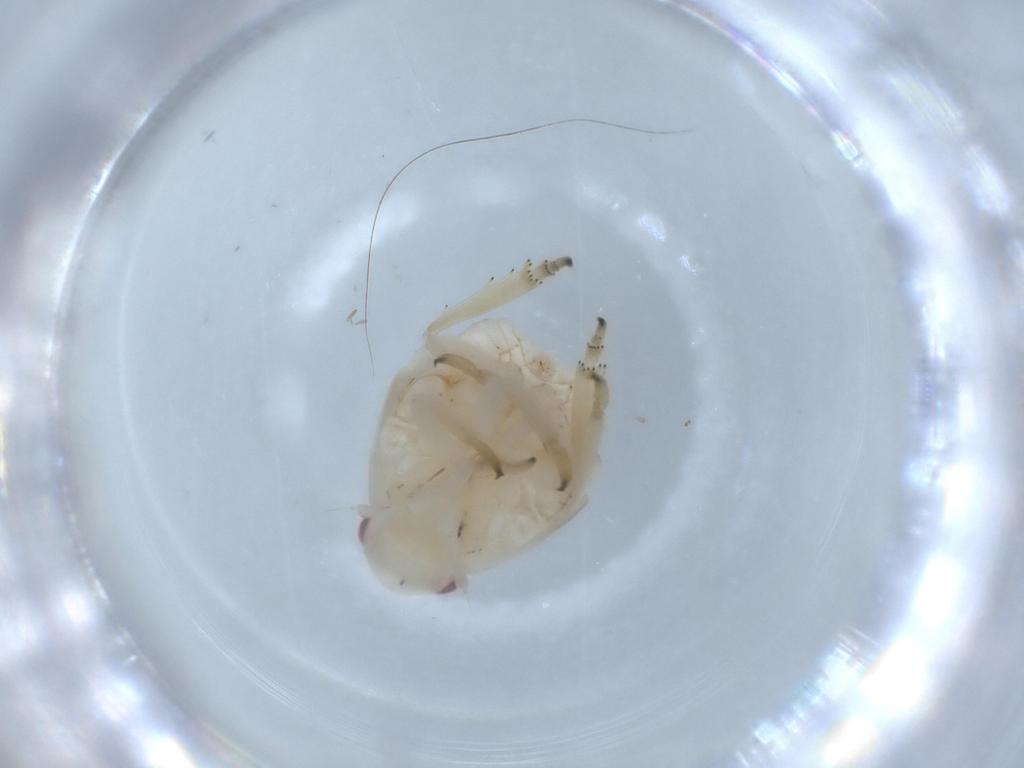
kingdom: Animalia
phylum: Arthropoda
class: Insecta
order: Hemiptera
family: Flatidae
